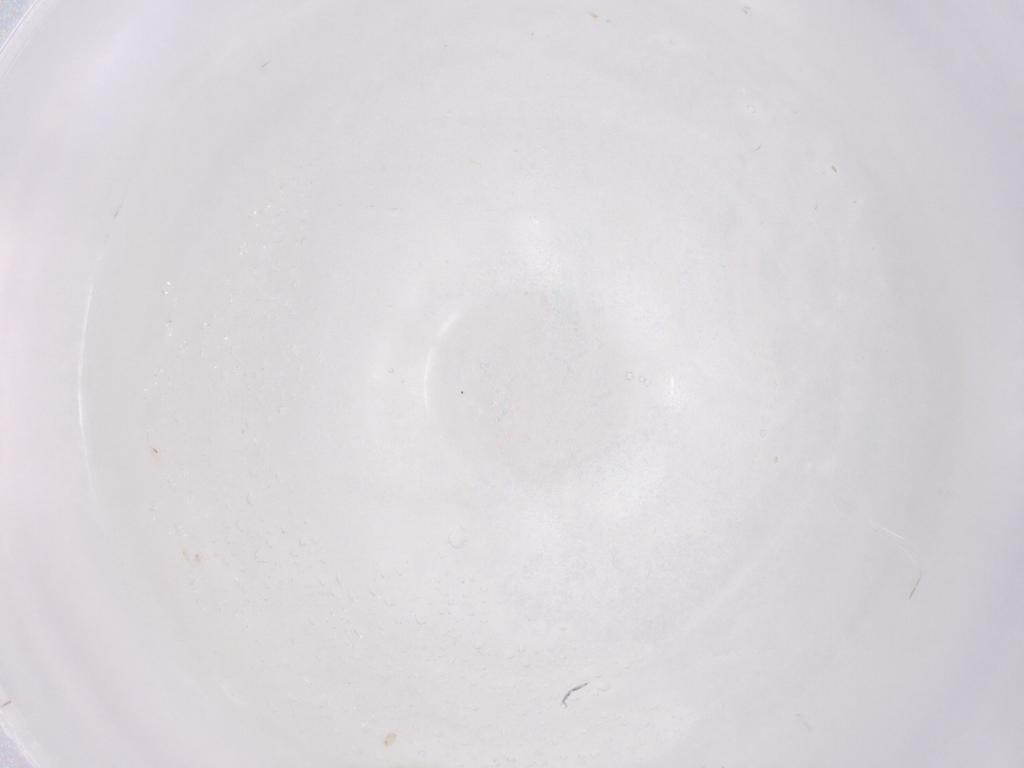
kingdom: Animalia
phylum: Arthropoda
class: Insecta
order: Hymenoptera
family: Aphelinidae
